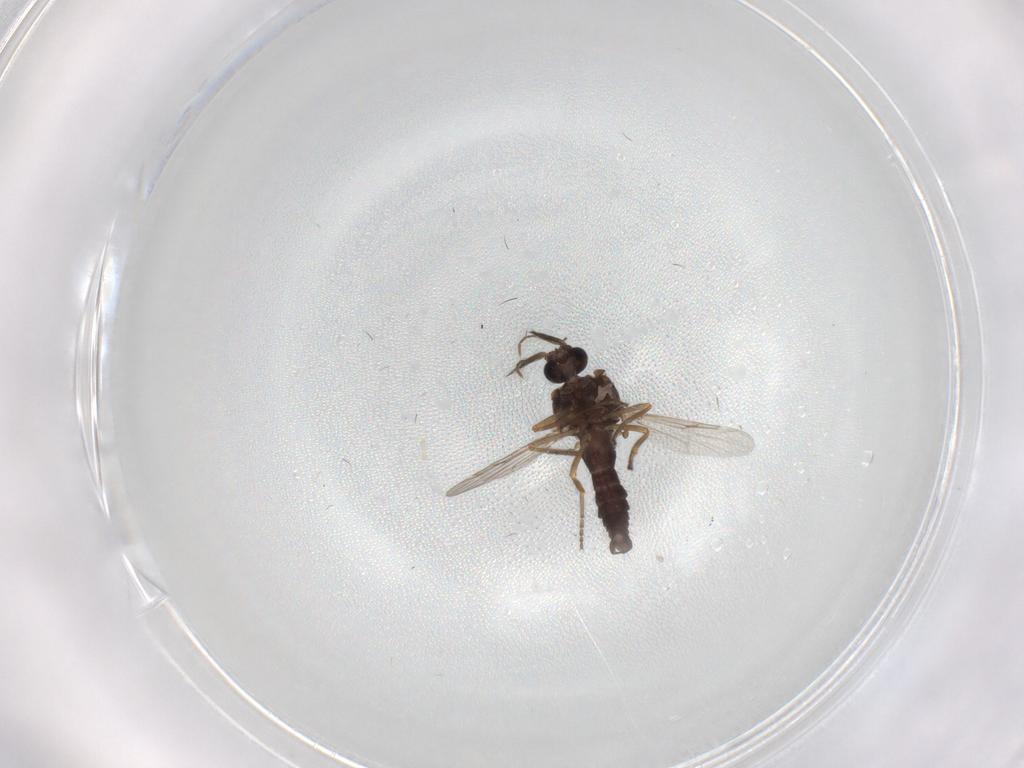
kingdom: Animalia
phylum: Arthropoda
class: Insecta
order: Diptera
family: Ceratopogonidae
